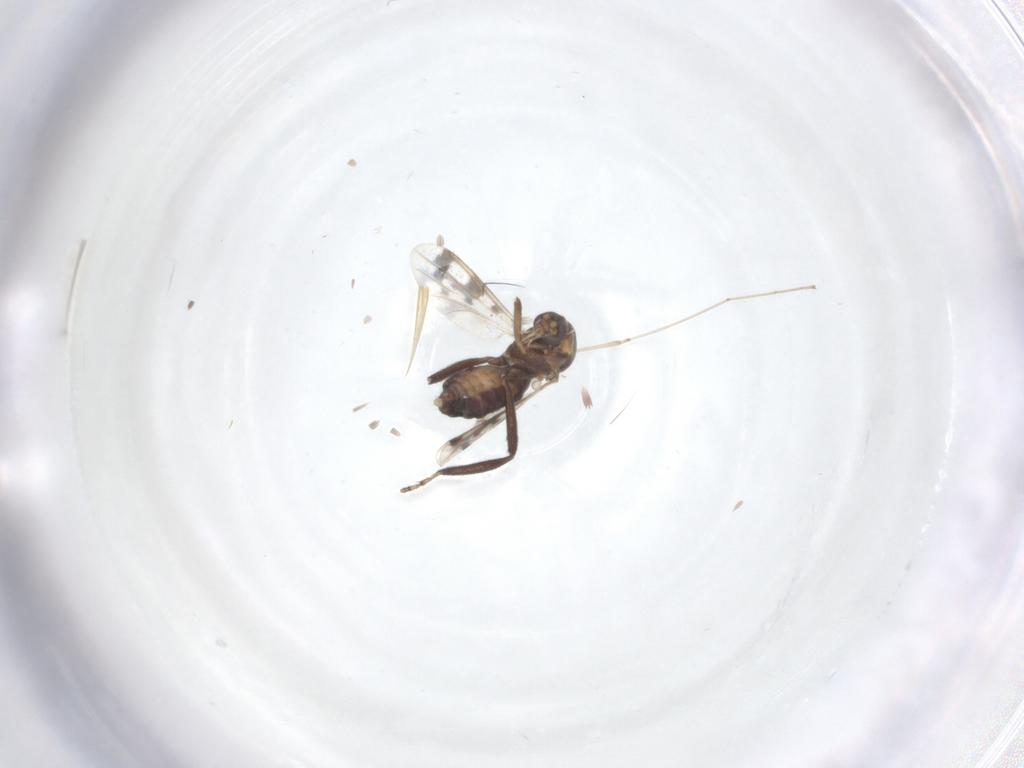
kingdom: Animalia
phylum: Arthropoda
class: Insecta
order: Diptera
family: Ceratopogonidae
